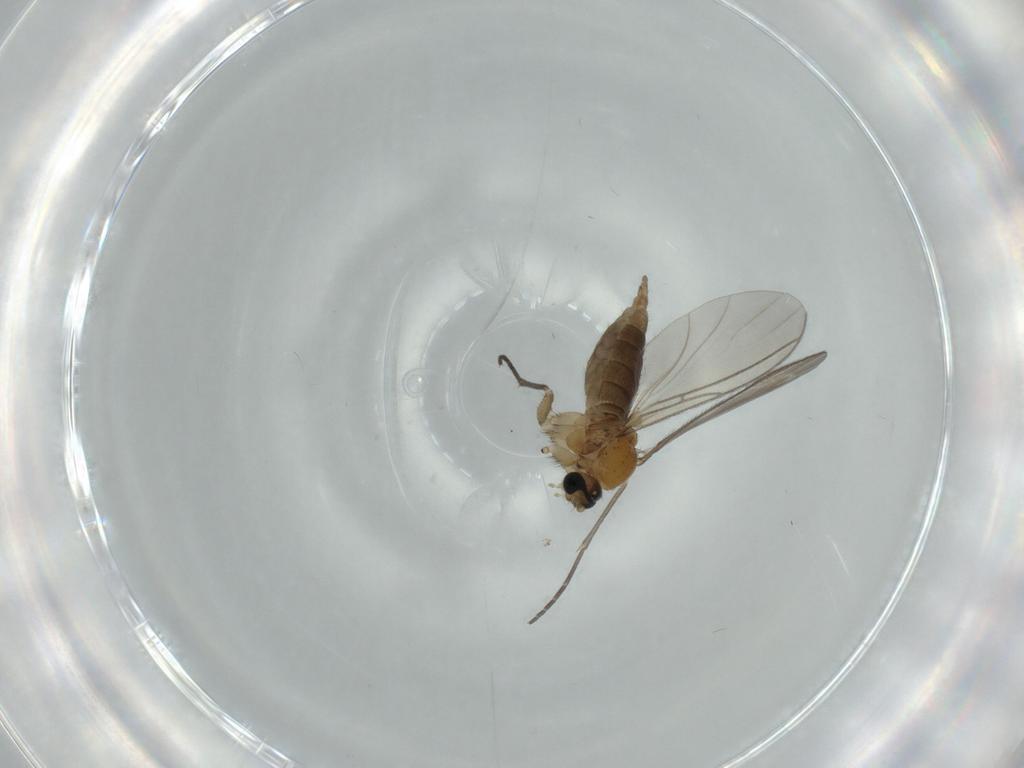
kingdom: Animalia
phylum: Arthropoda
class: Insecta
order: Diptera
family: Sciaridae
